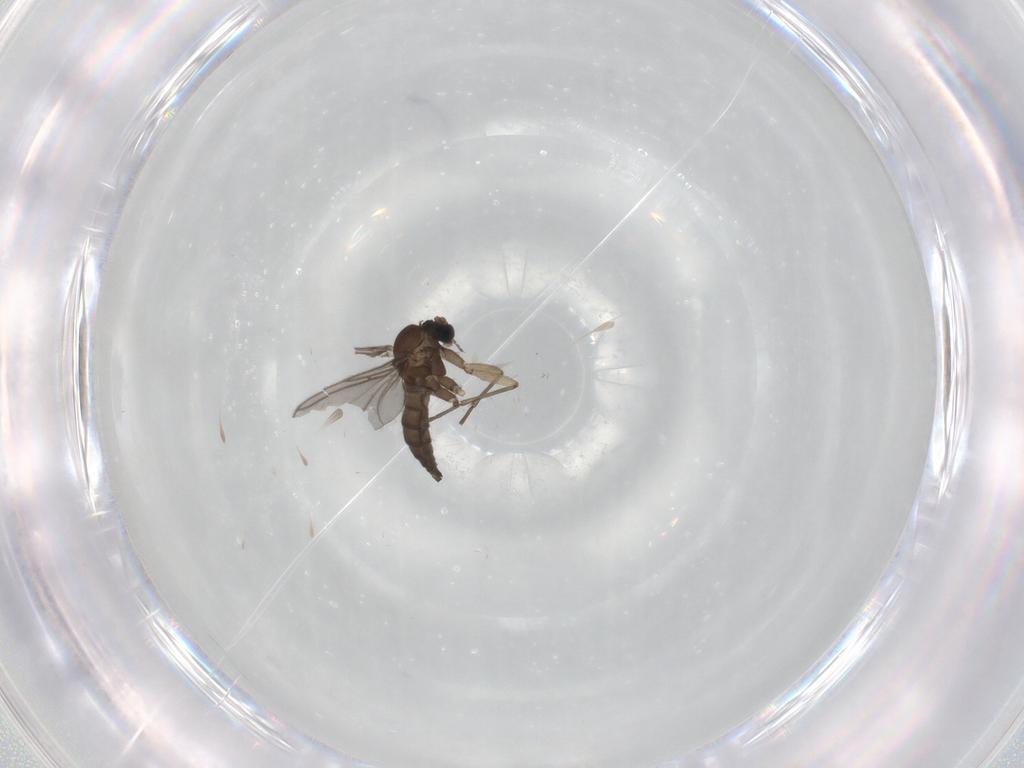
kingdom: Animalia
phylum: Arthropoda
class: Insecta
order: Diptera
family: Sciaridae
